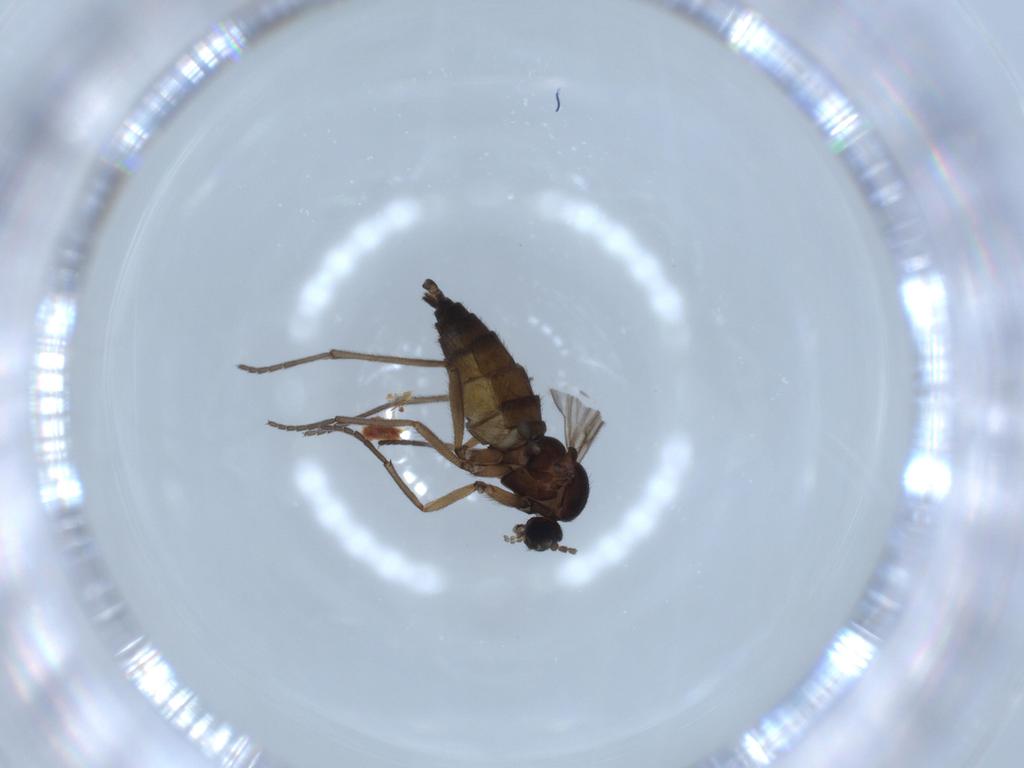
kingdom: Animalia
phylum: Arthropoda
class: Insecta
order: Diptera
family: Sciaridae
